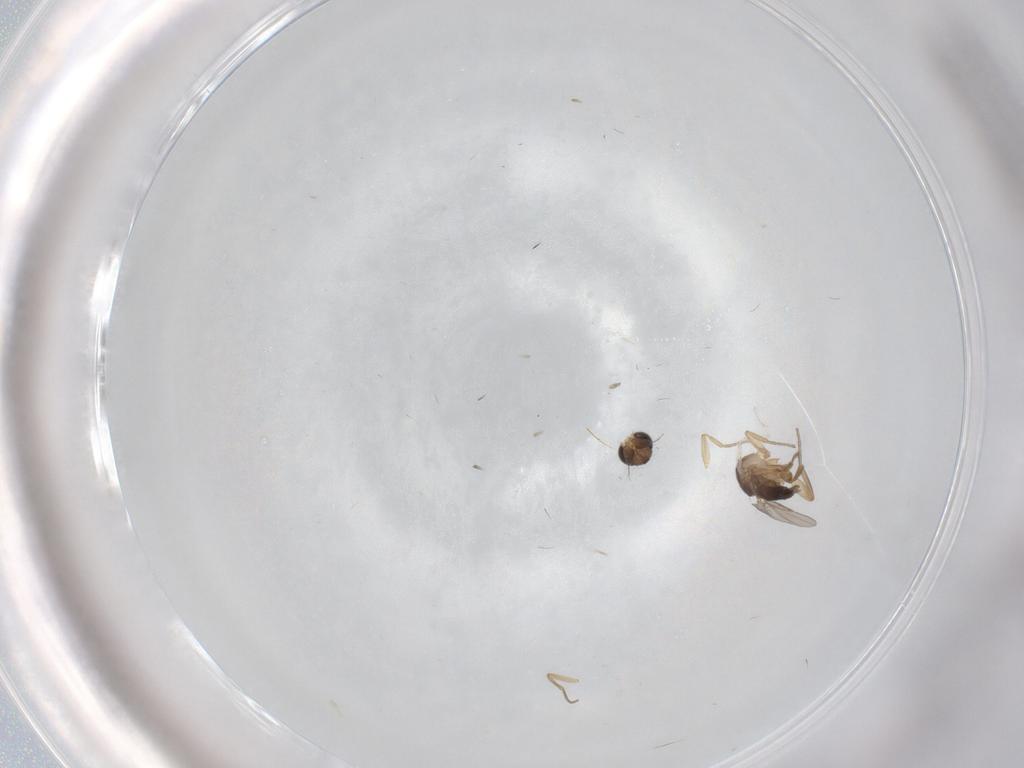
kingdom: Animalia
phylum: Arthropoda
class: Insecta
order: Diptera
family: Phoridae
